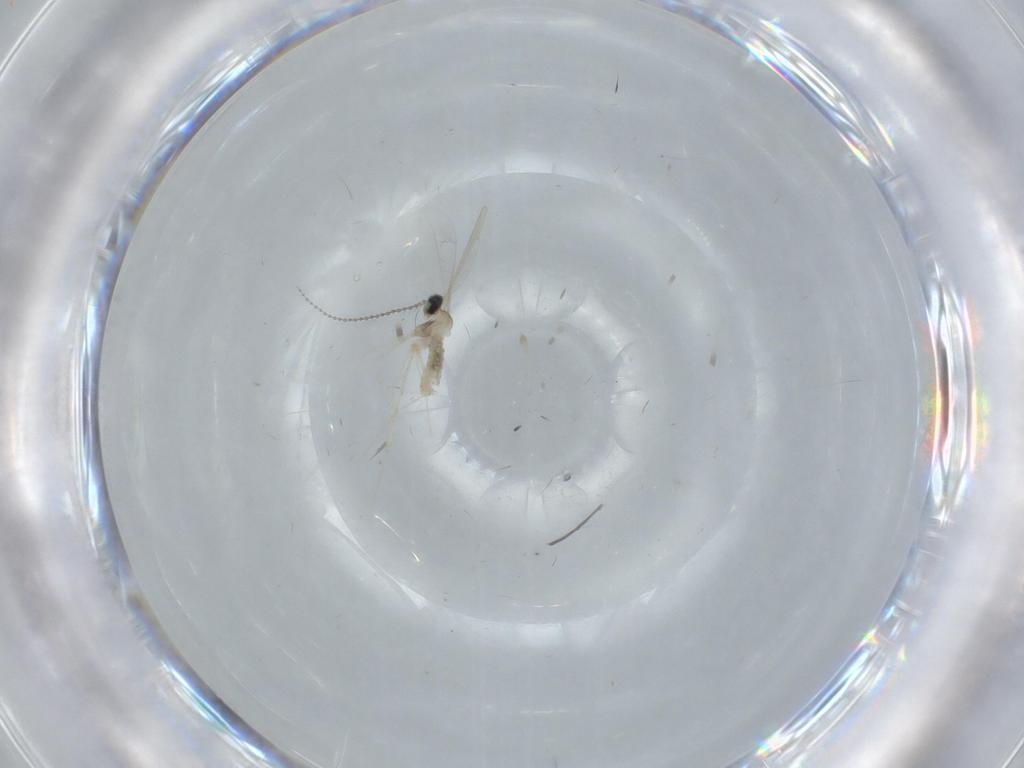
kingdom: Animalia
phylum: Arthropoda
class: Insecta
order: Diptera
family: Cecidomyiidae
